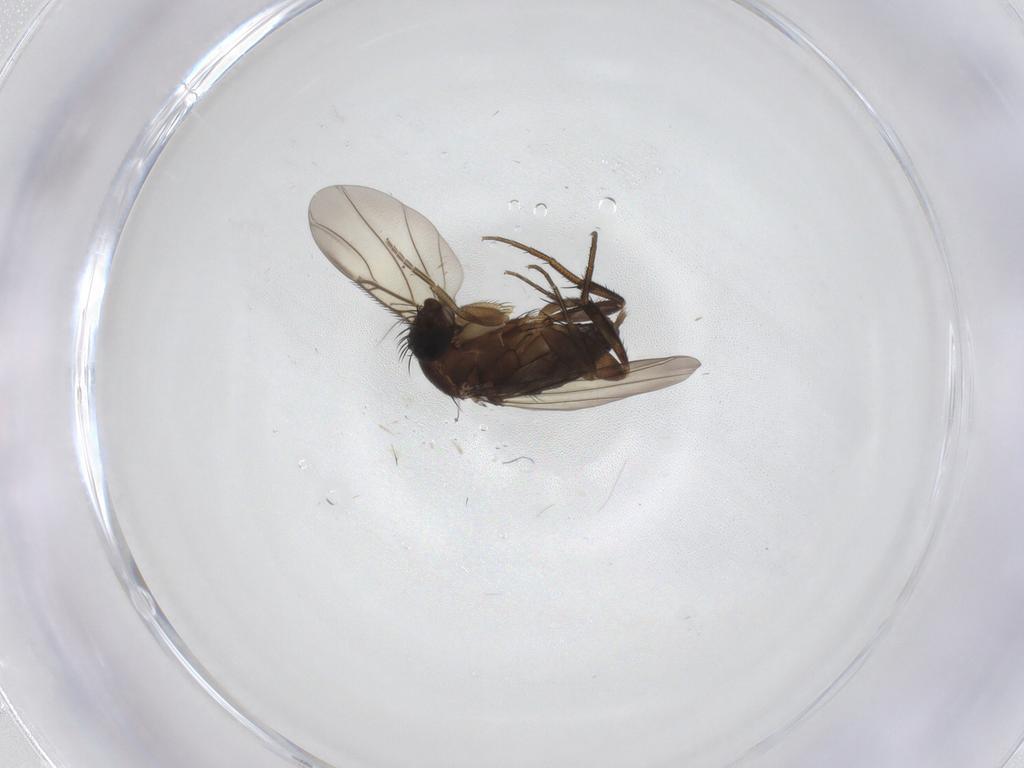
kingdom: Animalia
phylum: Arthropoda
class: Insecta
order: Diptera
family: Phoridae
